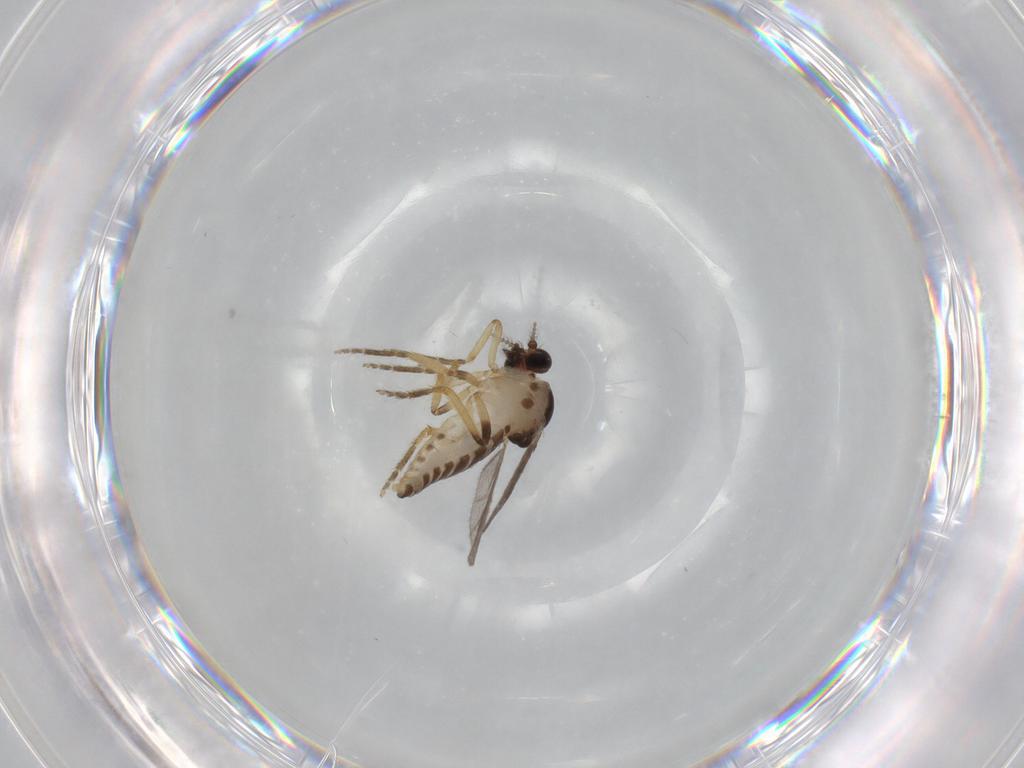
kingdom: Animalia
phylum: Arthropoda
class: Insecta
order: Diptera
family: Ceratopogonidae
